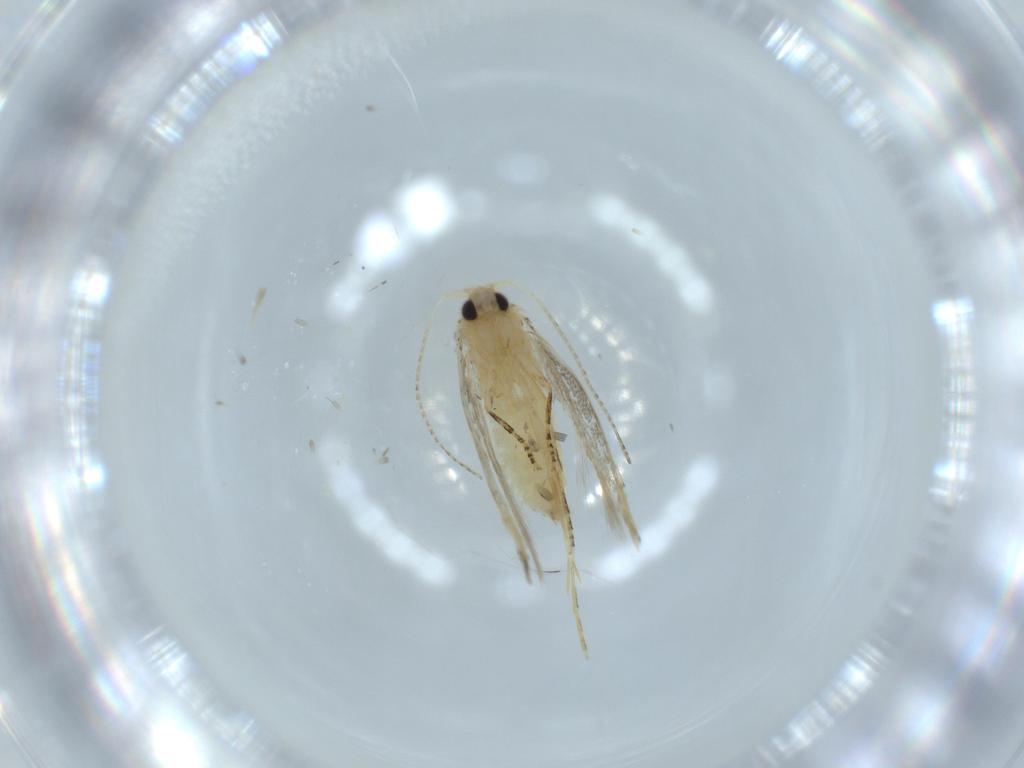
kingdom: Animalia
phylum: Arthropoda
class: Insecta
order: Lepidoptera
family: Bucculatricidae
